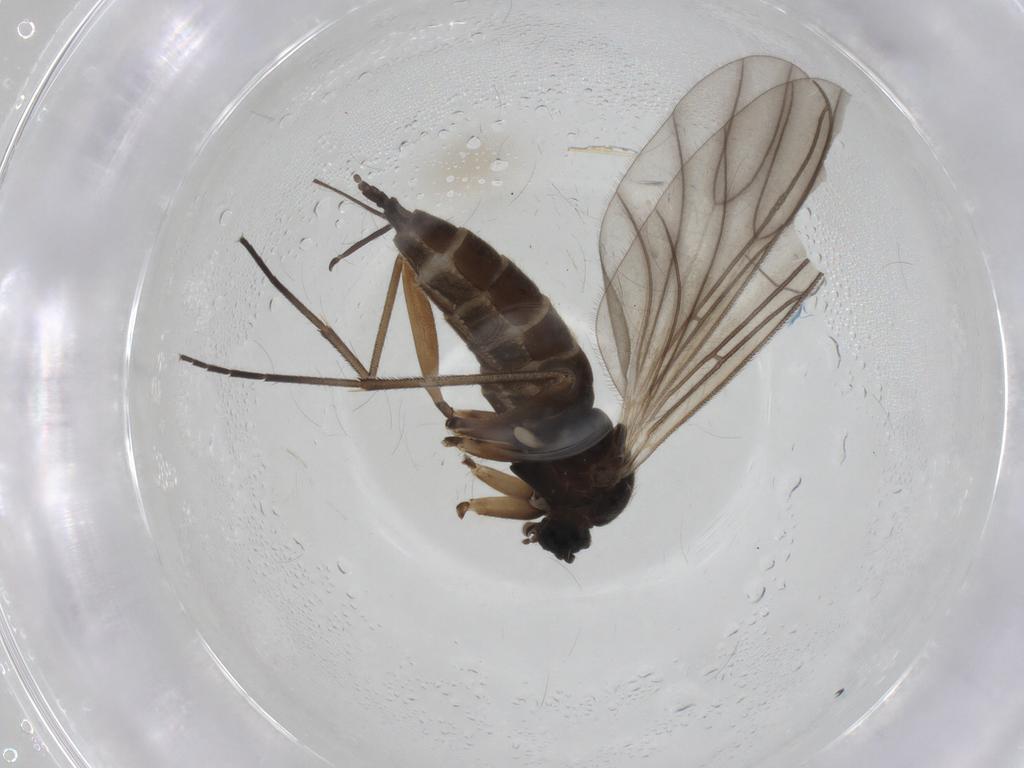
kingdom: Animalia
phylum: Arthropoda
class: Insecta
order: Diptera
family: Sciaridae
